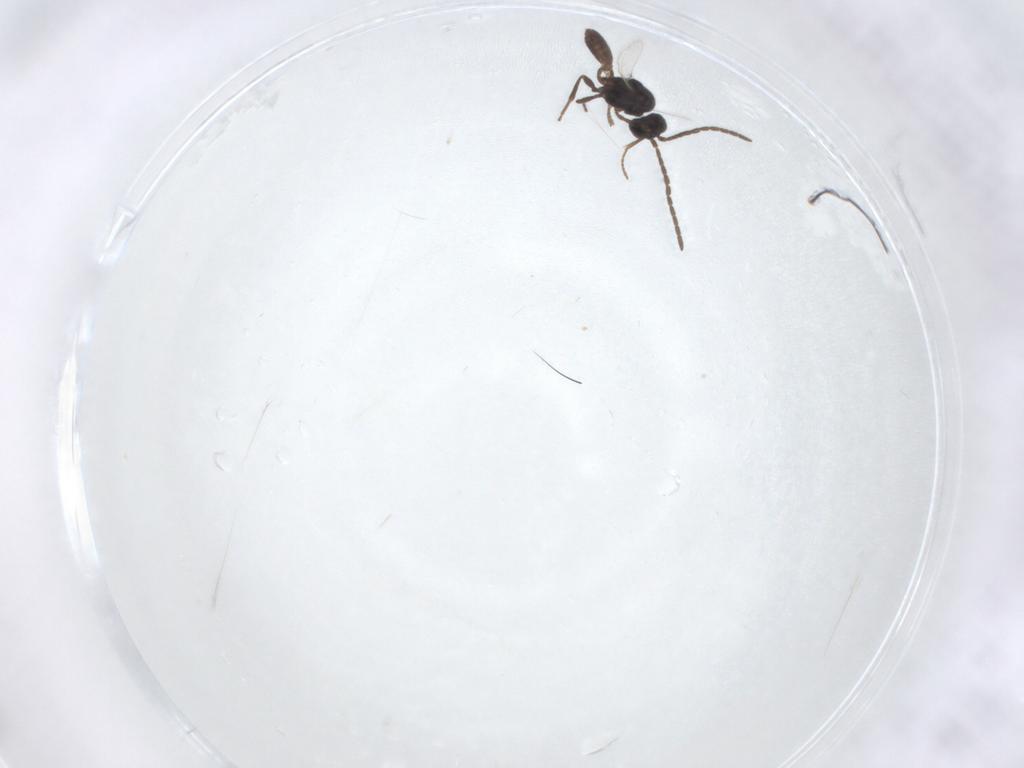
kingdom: Animalia
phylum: Arthropoda
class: Insecta
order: Hymenoptera
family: Braconidae
